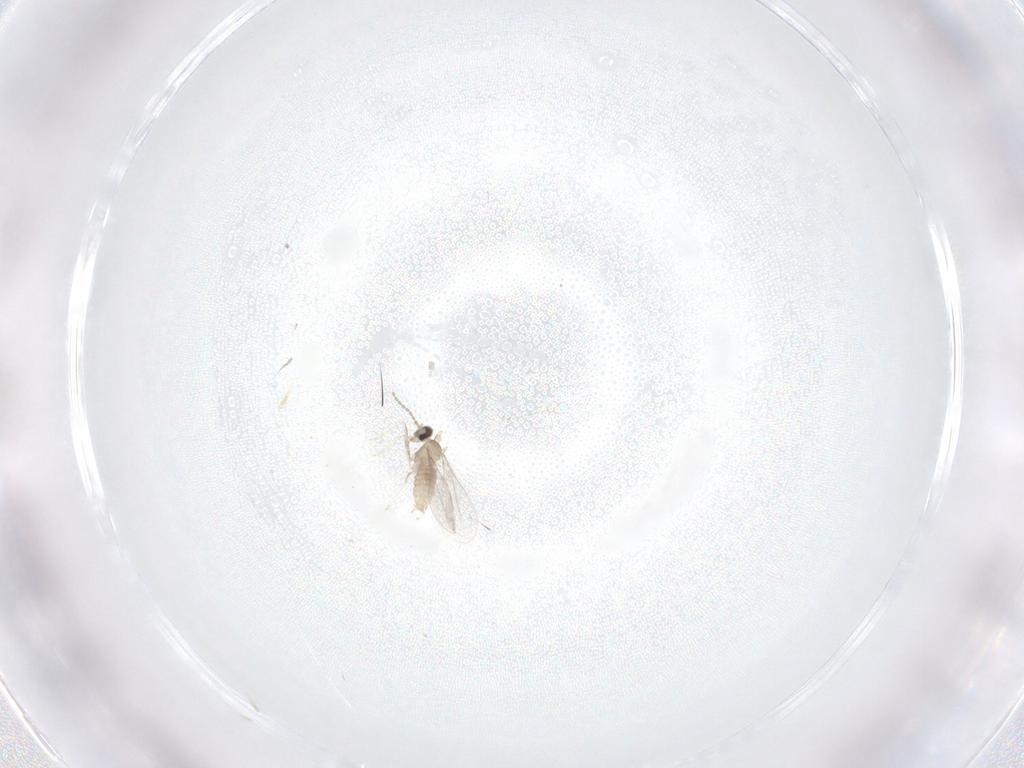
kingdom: Animalia
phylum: Arthropoda
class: Insecta
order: Diptera
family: Cecidomyiidae
